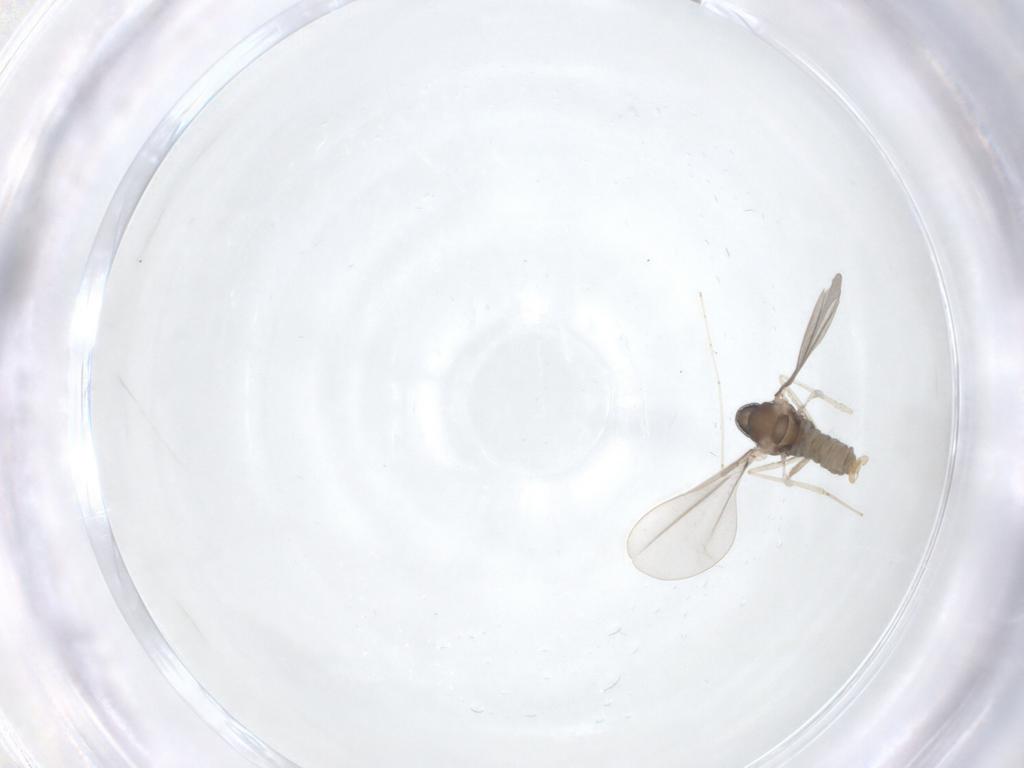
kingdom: Animalia
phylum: Arthropoda
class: Insecta
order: Diptera
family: Cecidomyiidae
